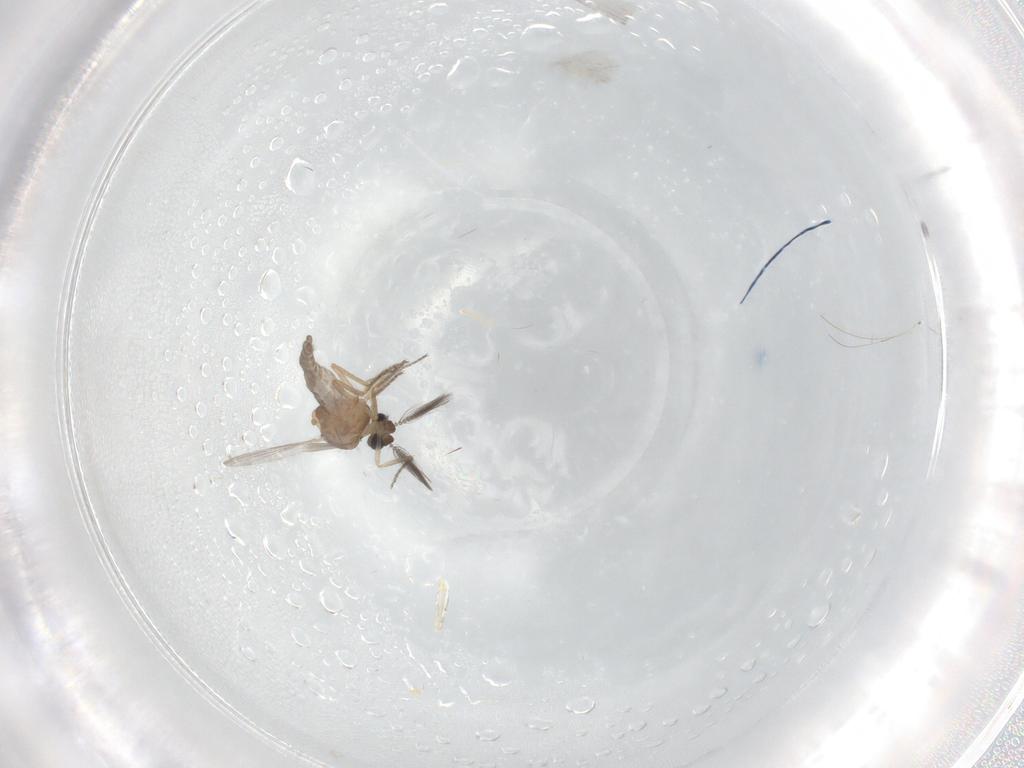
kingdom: Animalia
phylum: Arthropoda
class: Insecta
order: Diptera
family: Ceratopogonidae
